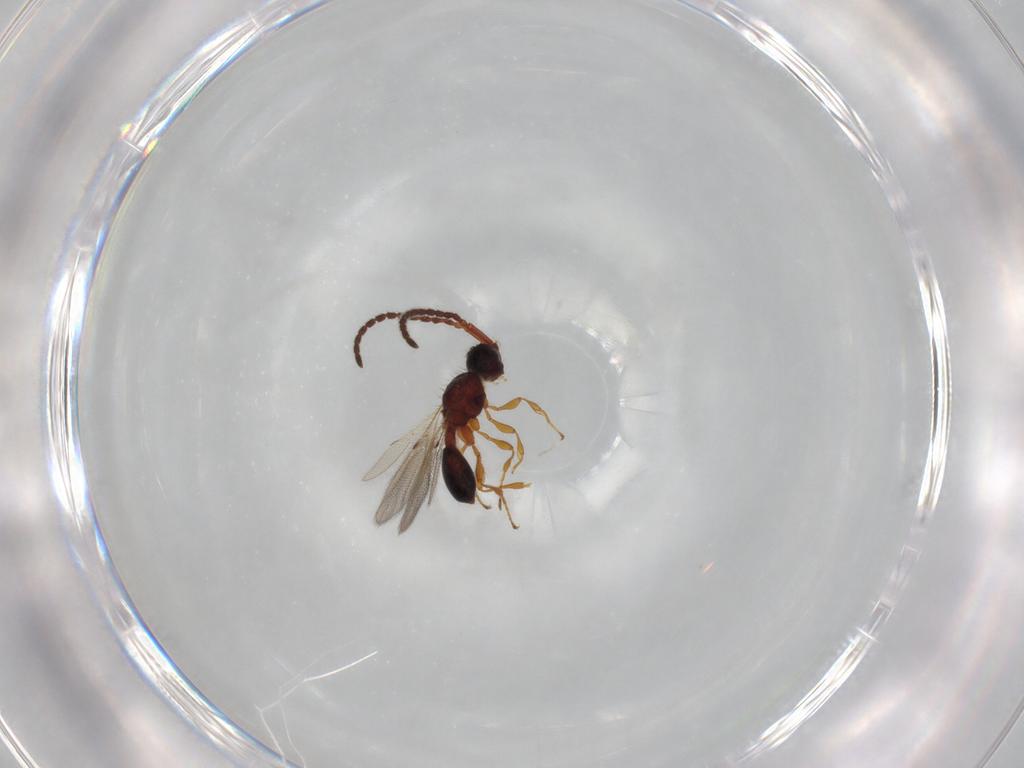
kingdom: Animalia
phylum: Arthropoda
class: Insecta
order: Hymenoptera
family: Diapriidae
